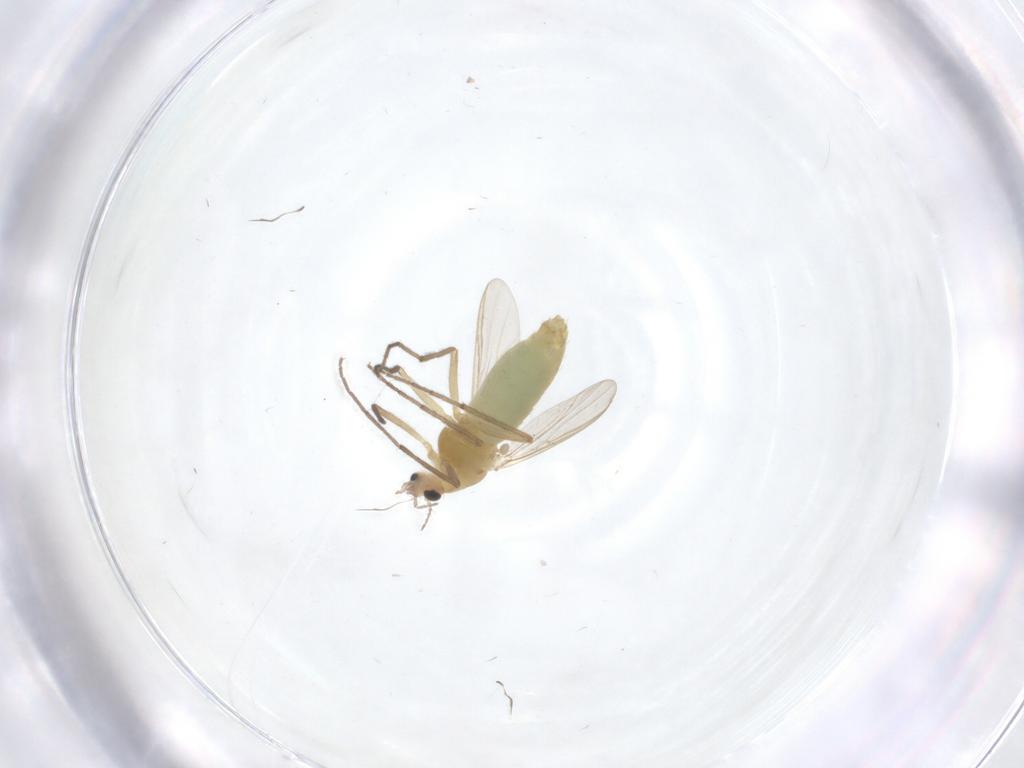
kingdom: Animalia
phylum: Arthropoda
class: Insecta
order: Diptera
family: Chironomidae
